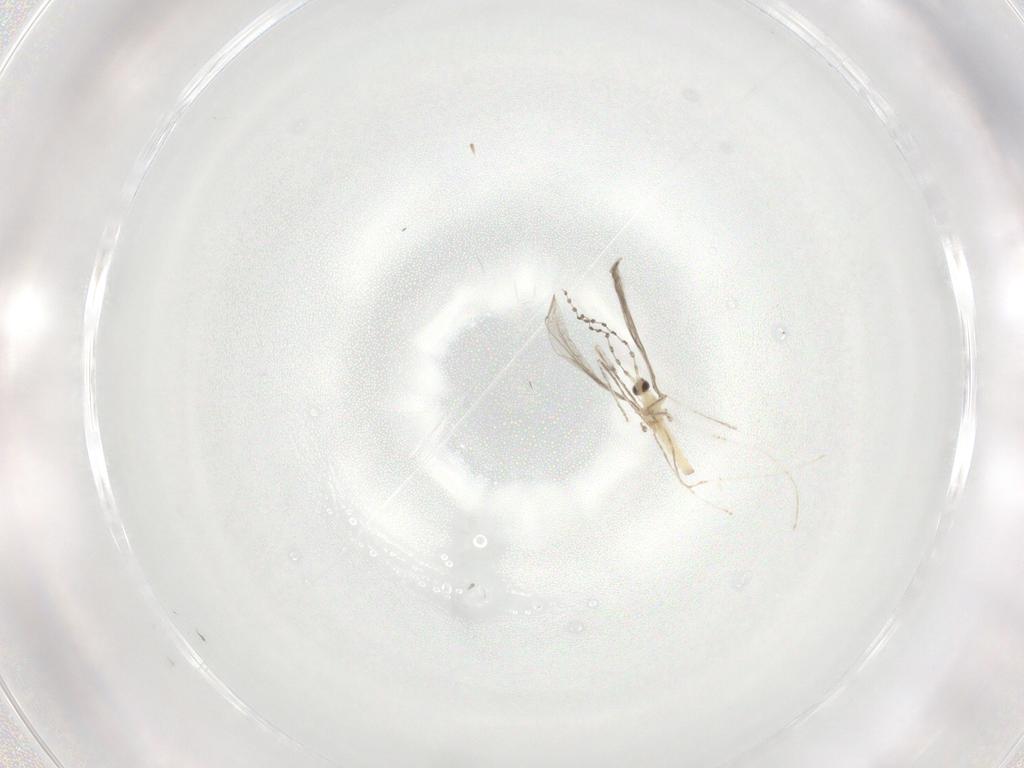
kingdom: Animalia
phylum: Arthropoda
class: Insecta
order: Diptera
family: Cecidomyiidae
